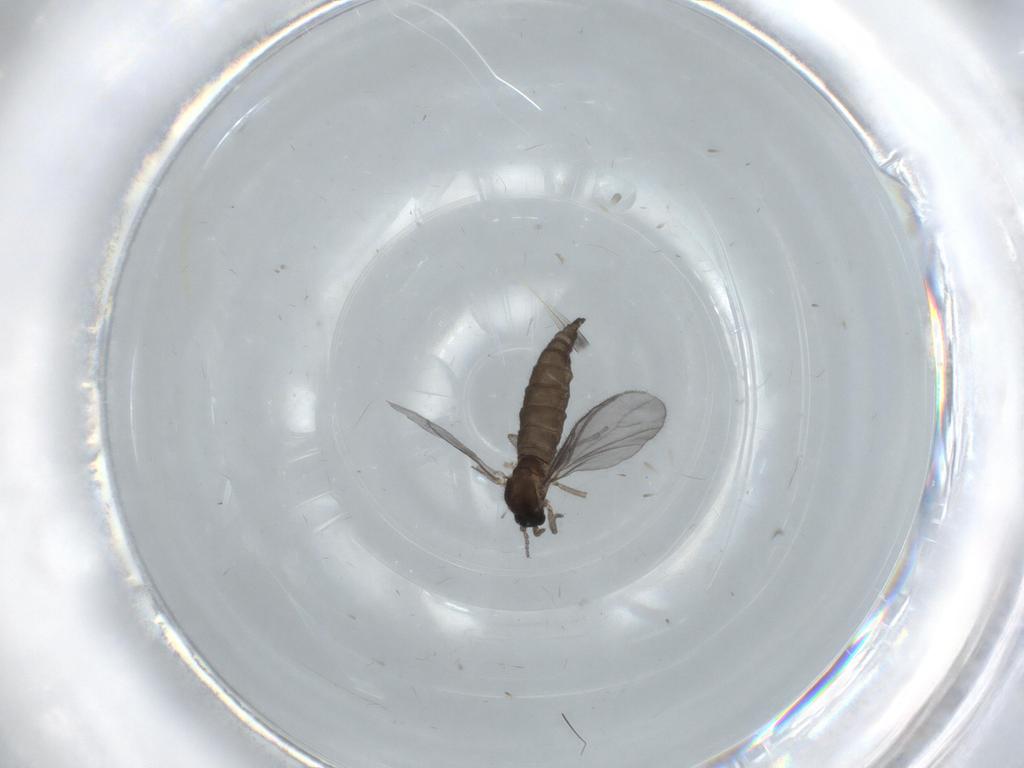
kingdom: Animalia
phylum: Arthropoda
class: Insecta
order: Diptera
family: Sciaridae
